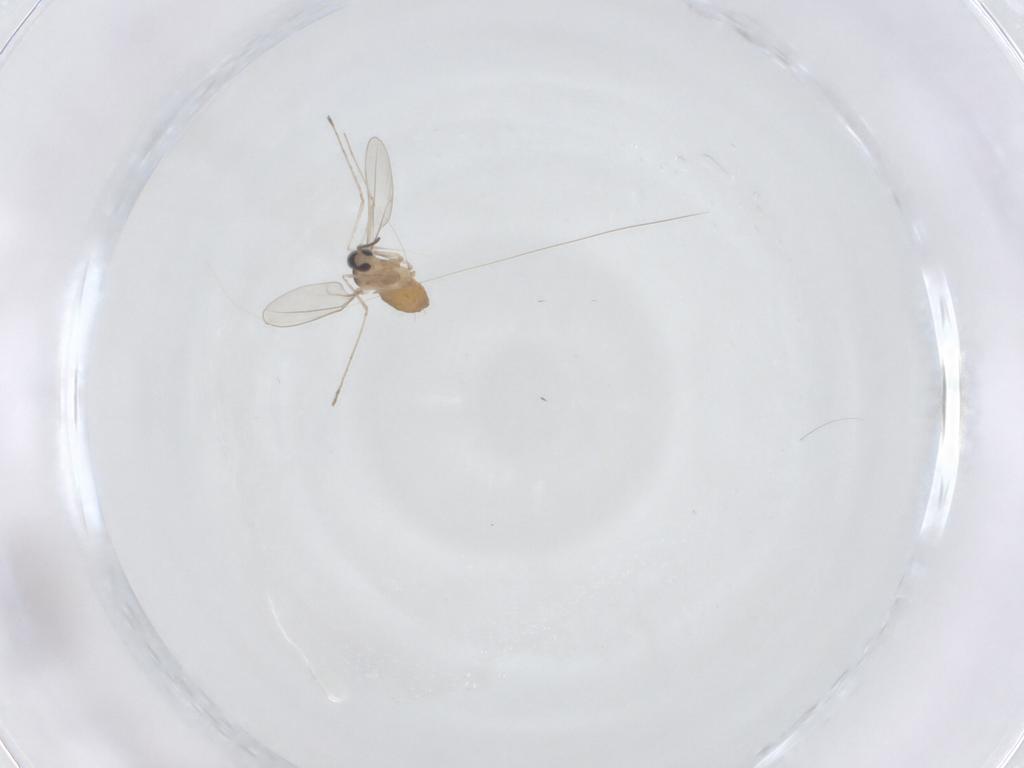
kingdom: Animalia
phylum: Arthropoda
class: Insecta
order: Diptera
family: Cecidomyiidae
